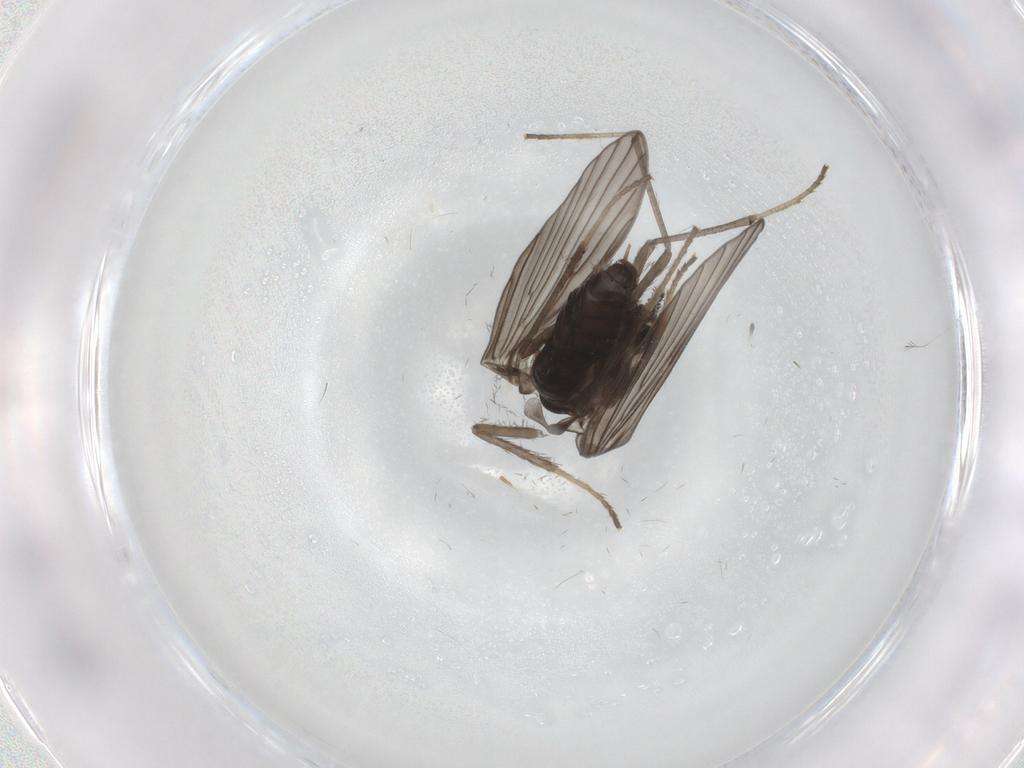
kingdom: Animalia
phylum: Arthropoda
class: Insecta
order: Diptera
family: Psychodidae
